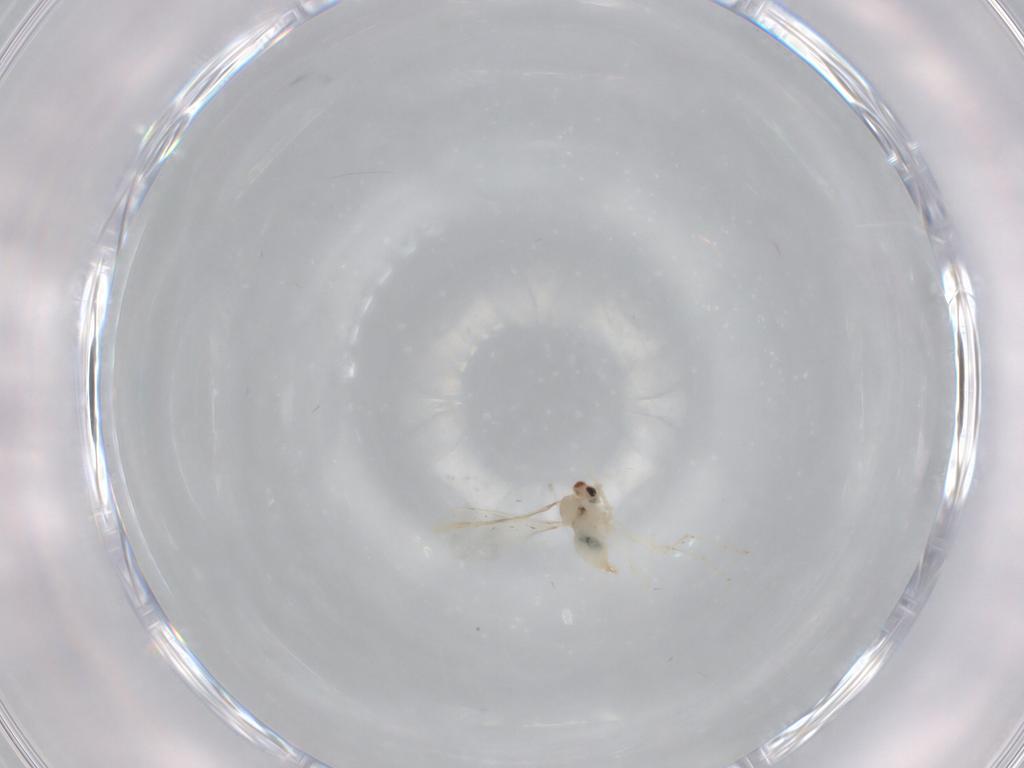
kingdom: Animalia
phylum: Arthropoda
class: Insecta
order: Diptera
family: Cecidomyiidae
